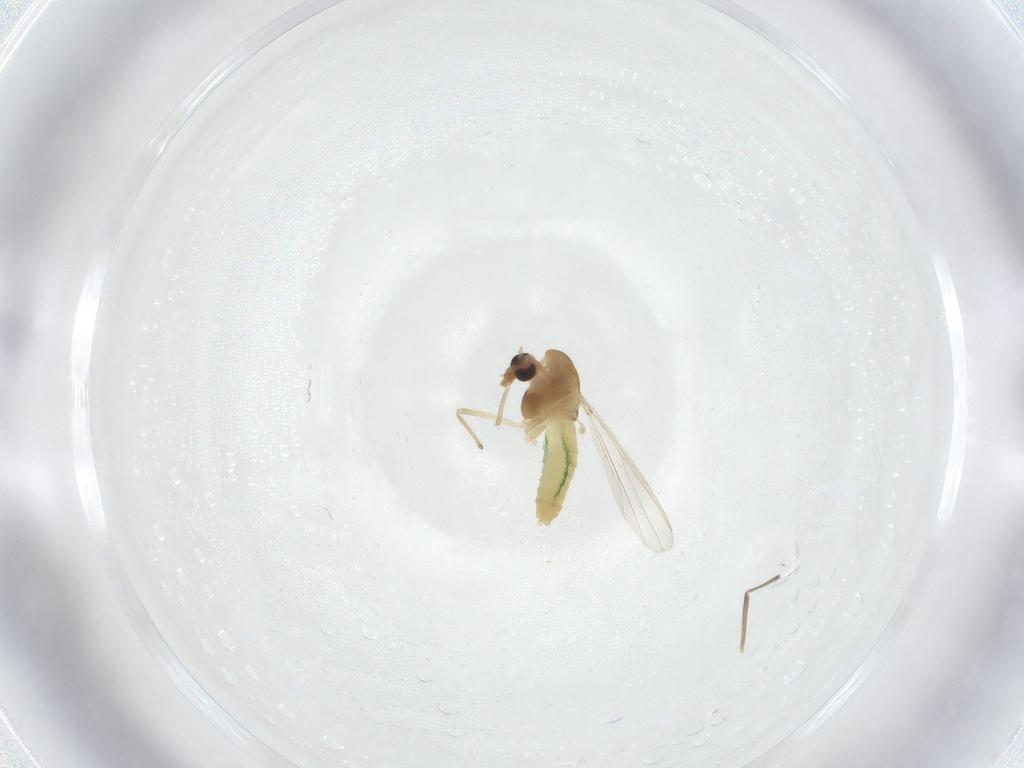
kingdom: Animalia
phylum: Arthropoda
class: Insecta
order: Diptera
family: Chironomidae
